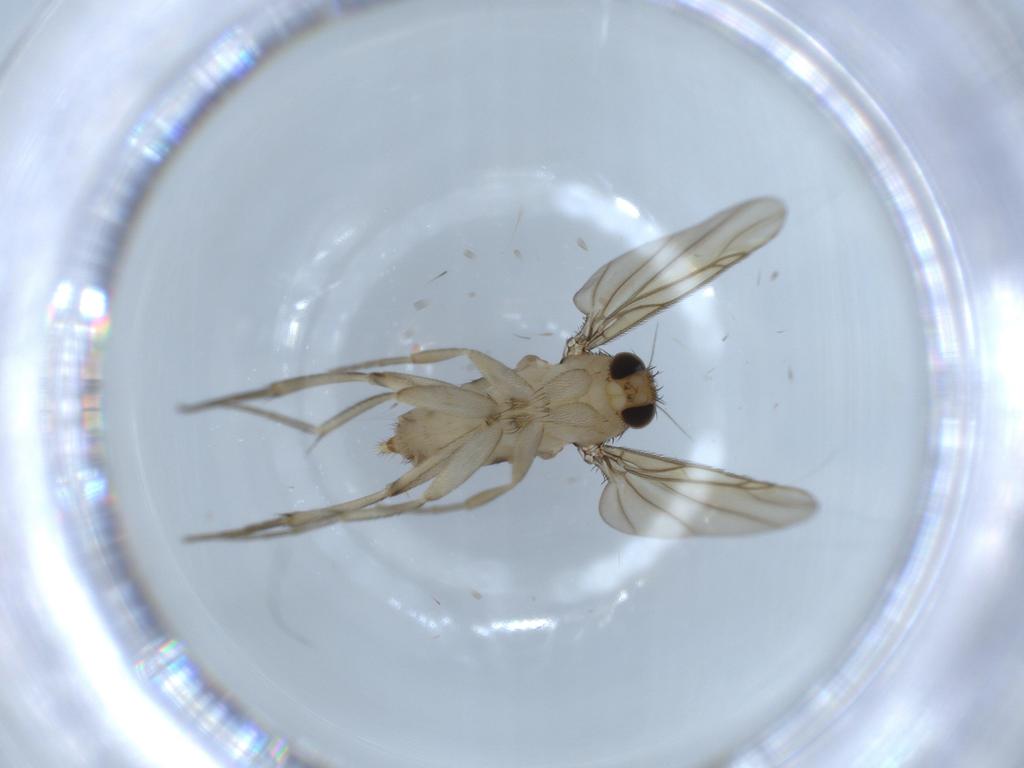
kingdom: Animalia
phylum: Arthropoda
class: Insecta
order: Diptera
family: Phoridae
